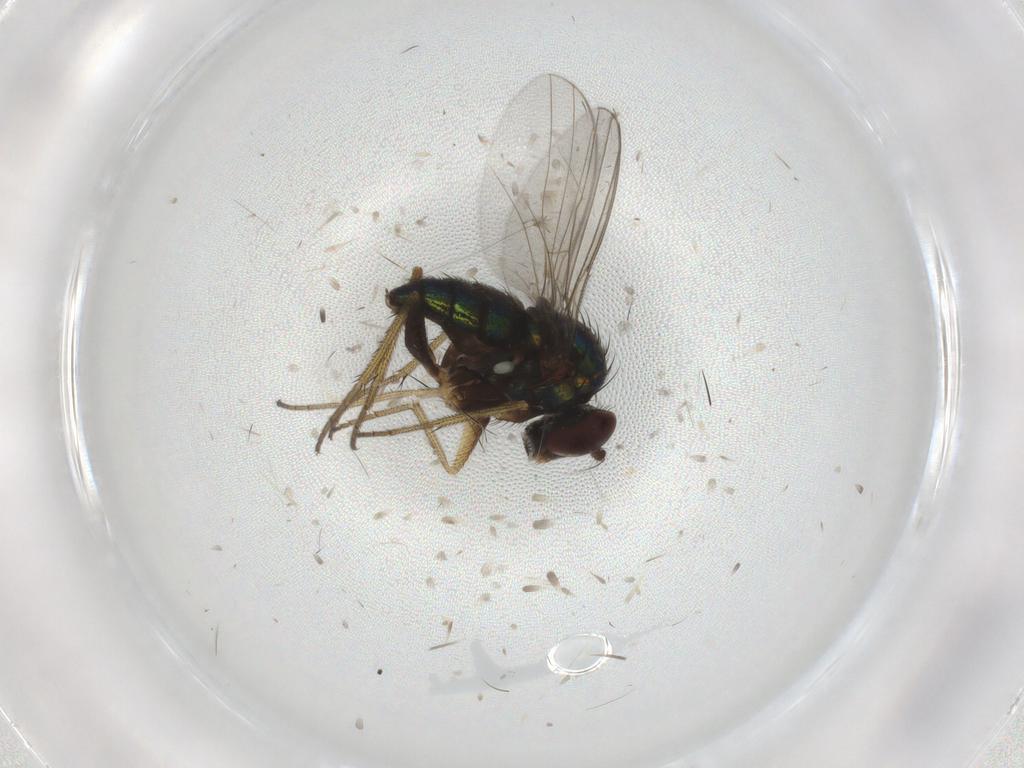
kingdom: Animalia
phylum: Arthropoda
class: Insecta
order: Diptera
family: Chironomidae
